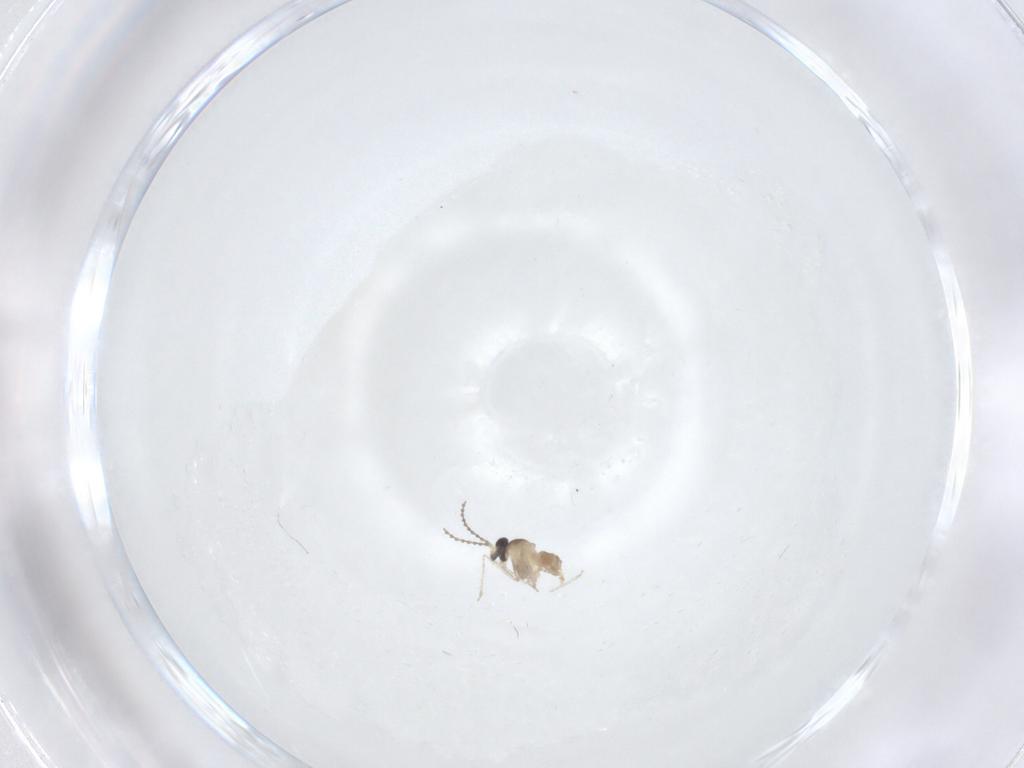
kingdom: Animalia
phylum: Arthropoda
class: Insecta
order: Diptera
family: Cecidomyiidae
